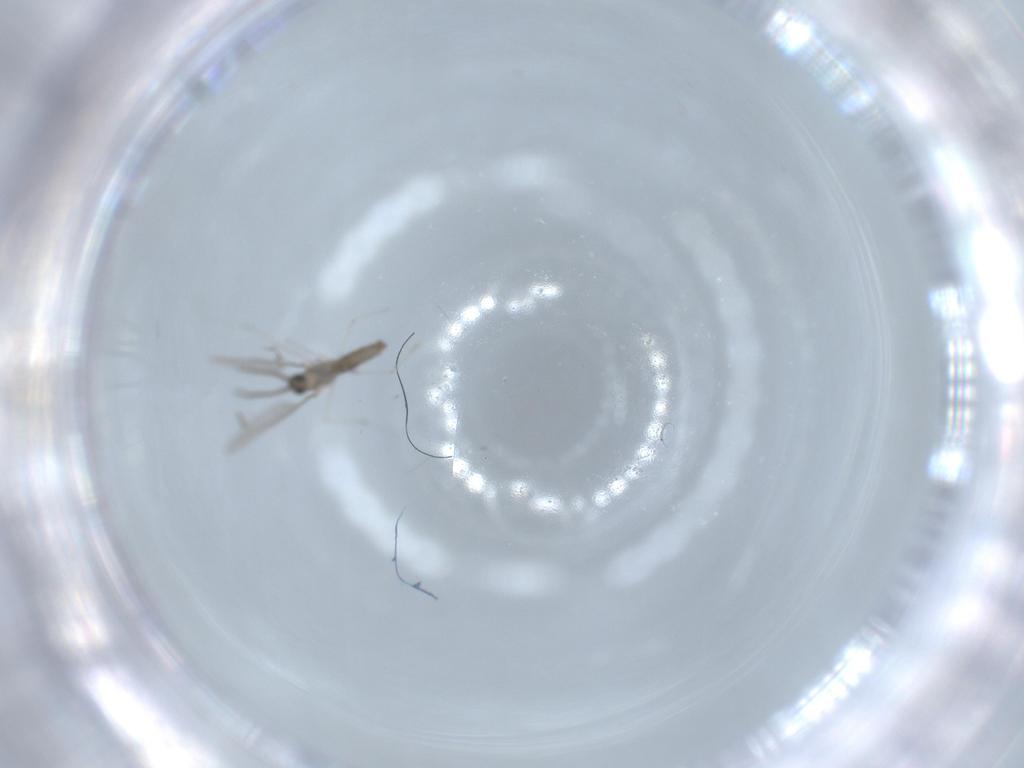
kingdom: Animalia
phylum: Arthropoda
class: Insecta
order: Diptera
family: Cecidomyiidae
